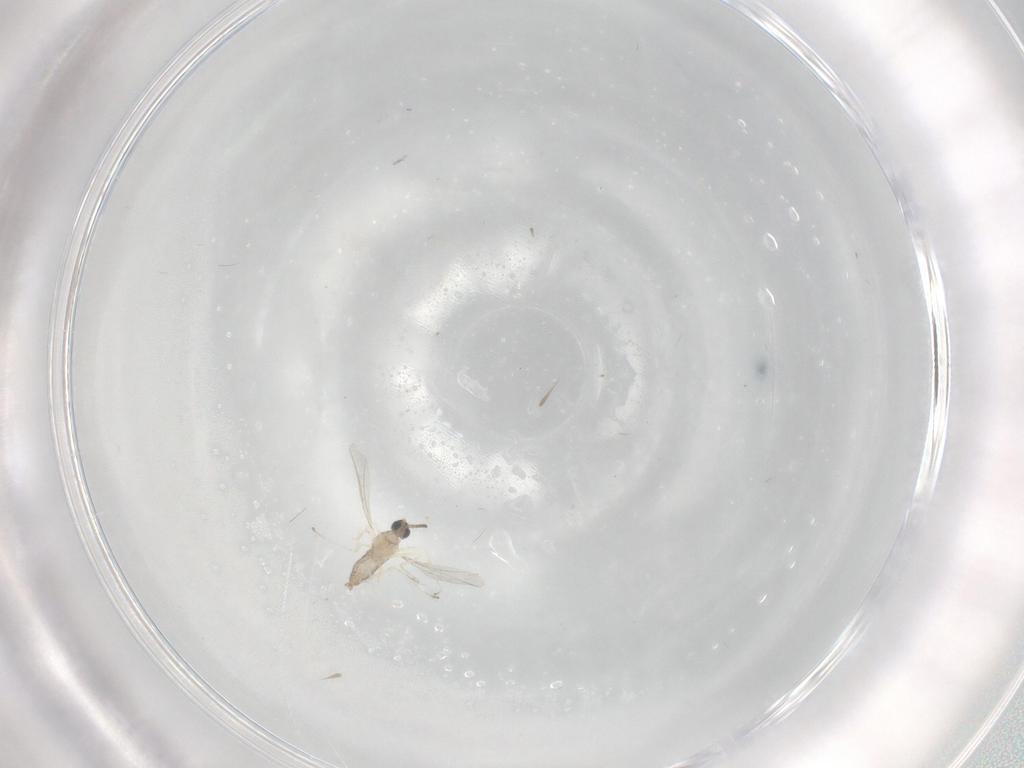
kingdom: Animalia
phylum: Arthropoda
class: Insecta
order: Diptera
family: Cecidomyiidae
